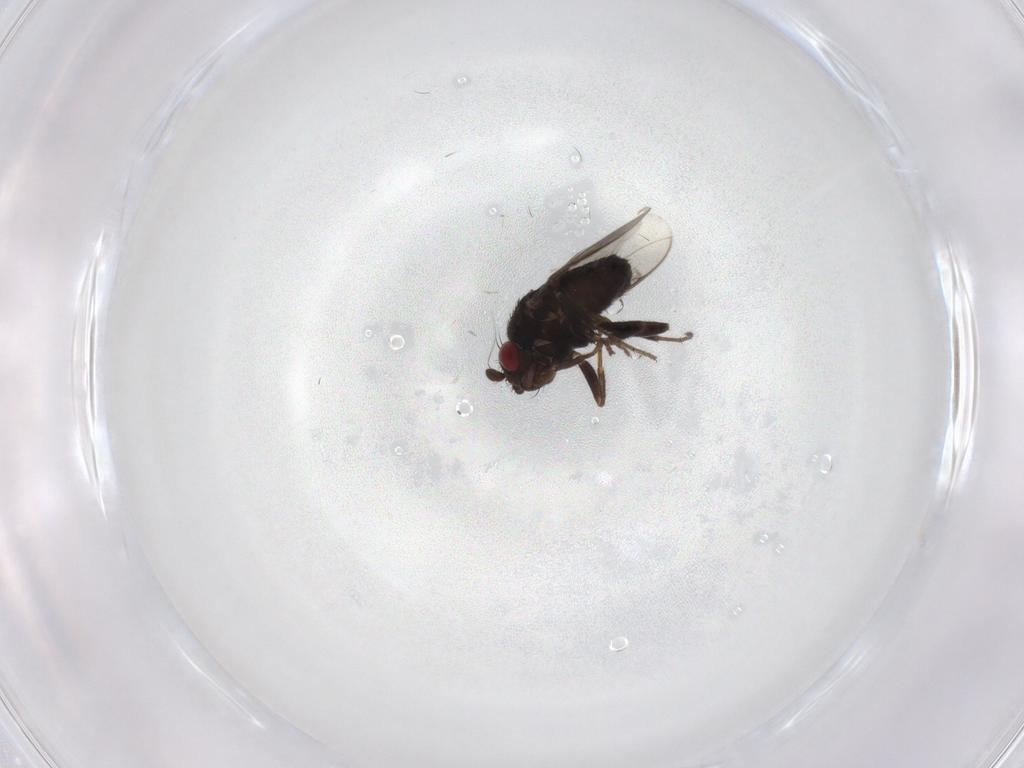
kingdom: Animalia
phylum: Arthropoda
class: Insecta
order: Diptera
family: Sphaeroceridae
